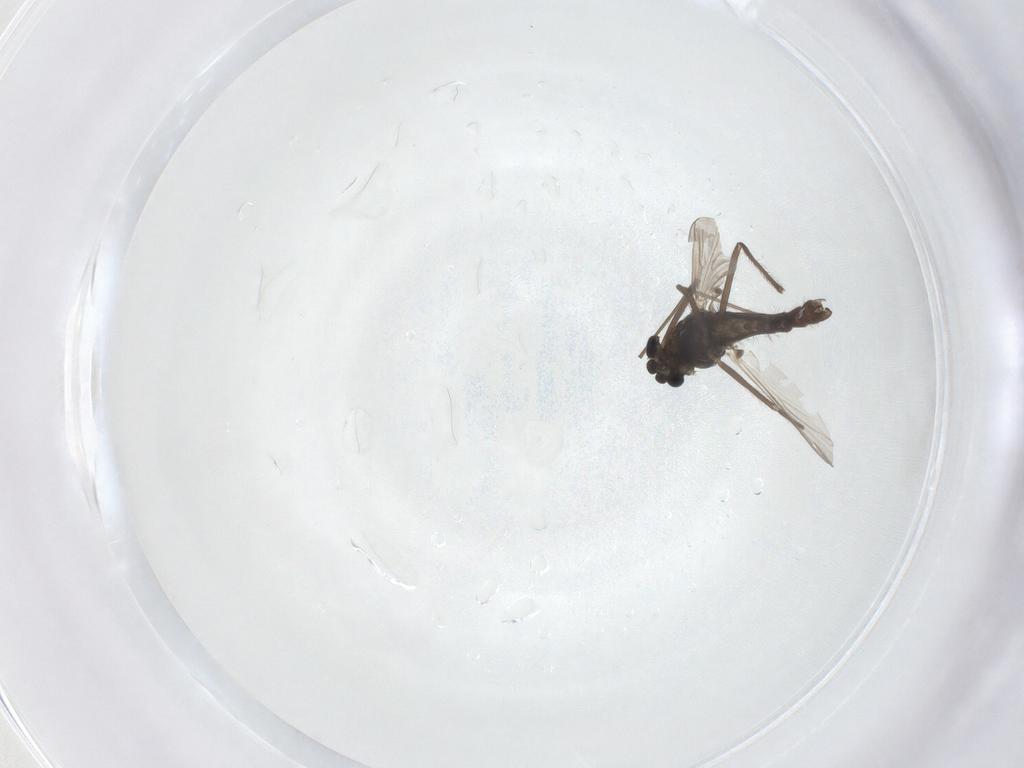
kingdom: Animalia
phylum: Arthropoda
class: Insecta
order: Diptera
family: Chironomidae
